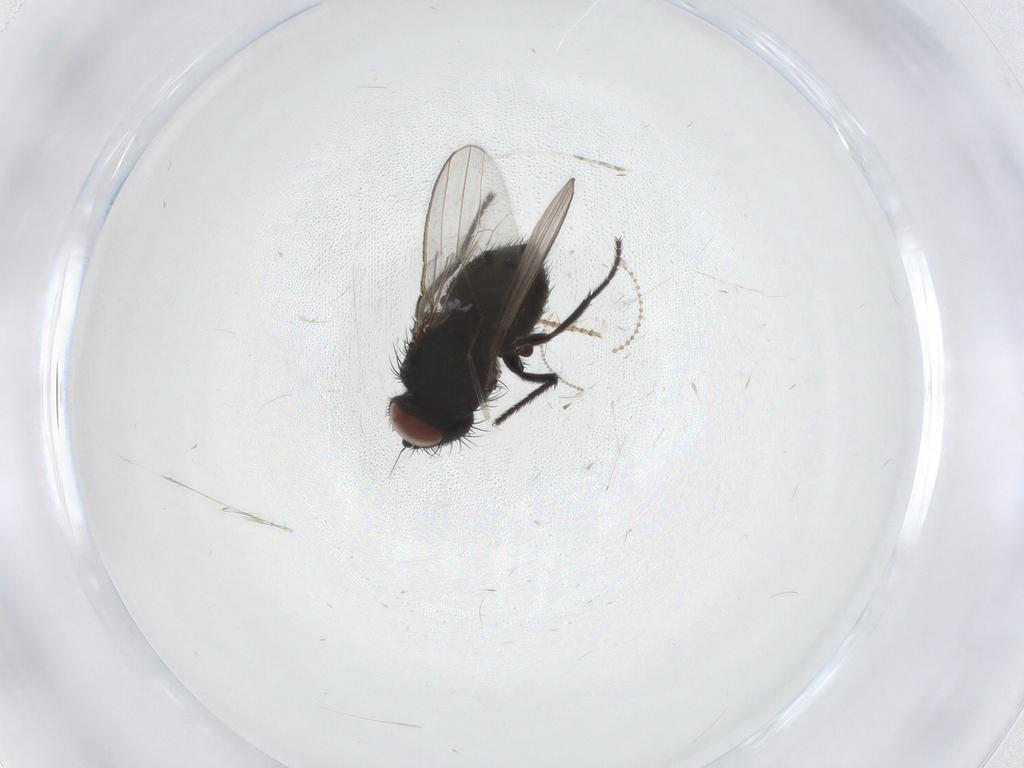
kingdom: Animalia
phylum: Arthropoda
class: Insecta
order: Diptera
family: Milichiidae
